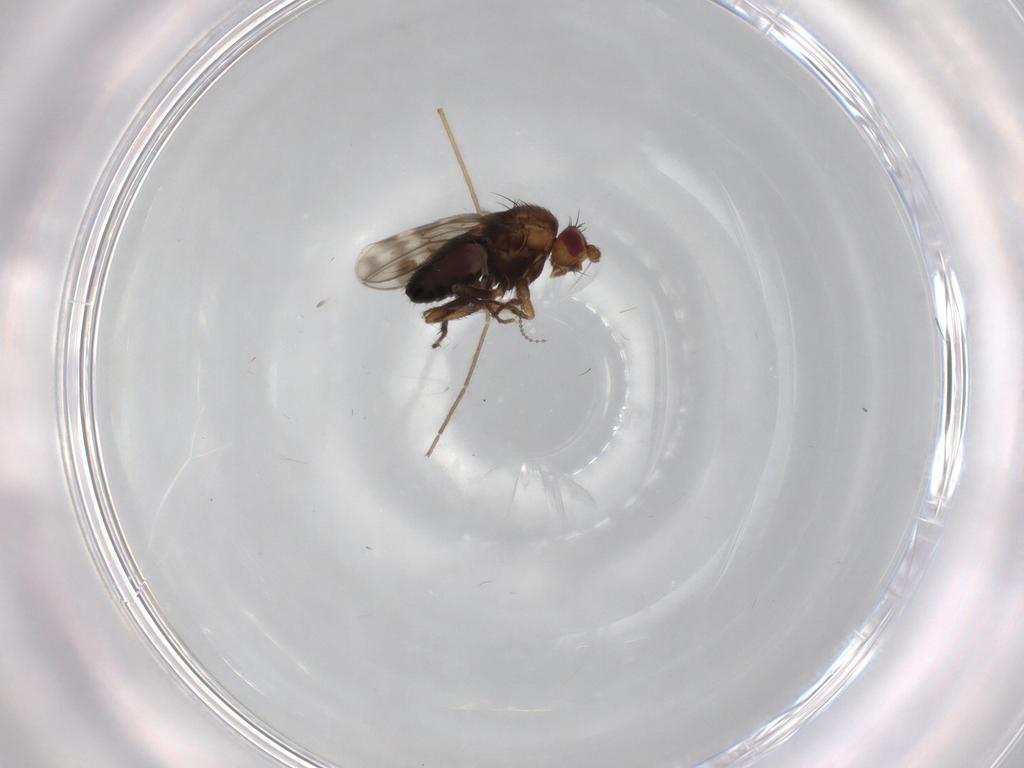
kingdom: Animalia
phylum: Arthropoda
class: Insecta
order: Diptera
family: Sphaeroceridae
